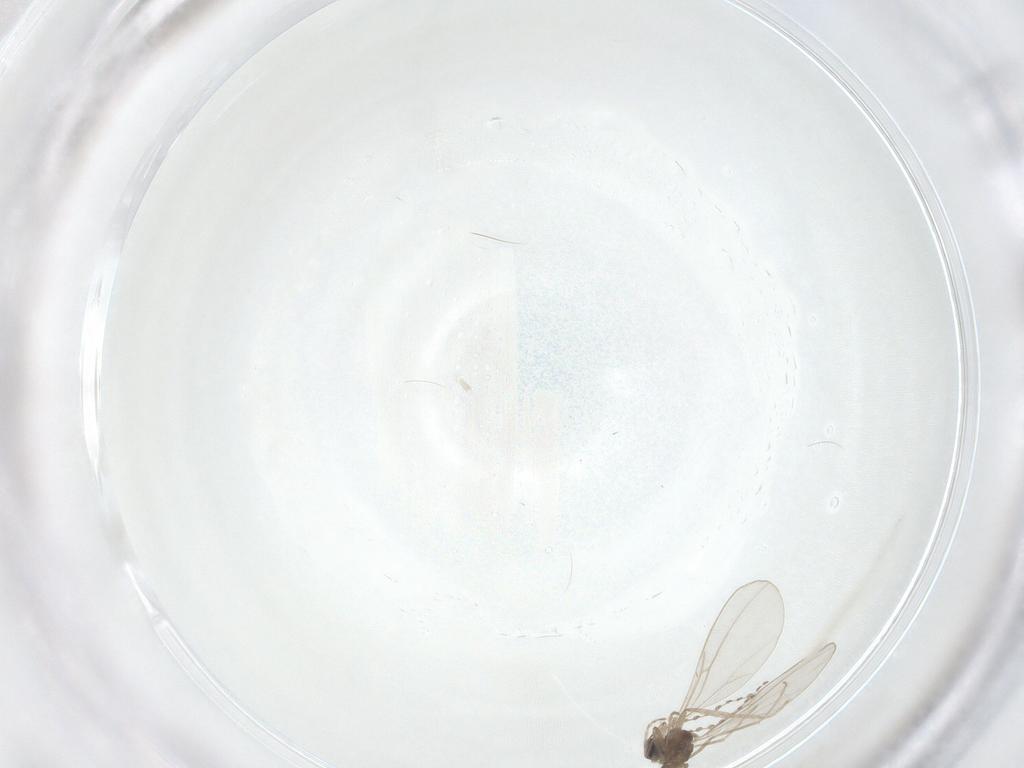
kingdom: Animalia
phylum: Arthropoda
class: Insecta
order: Diptera
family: Cecidomyiidae
